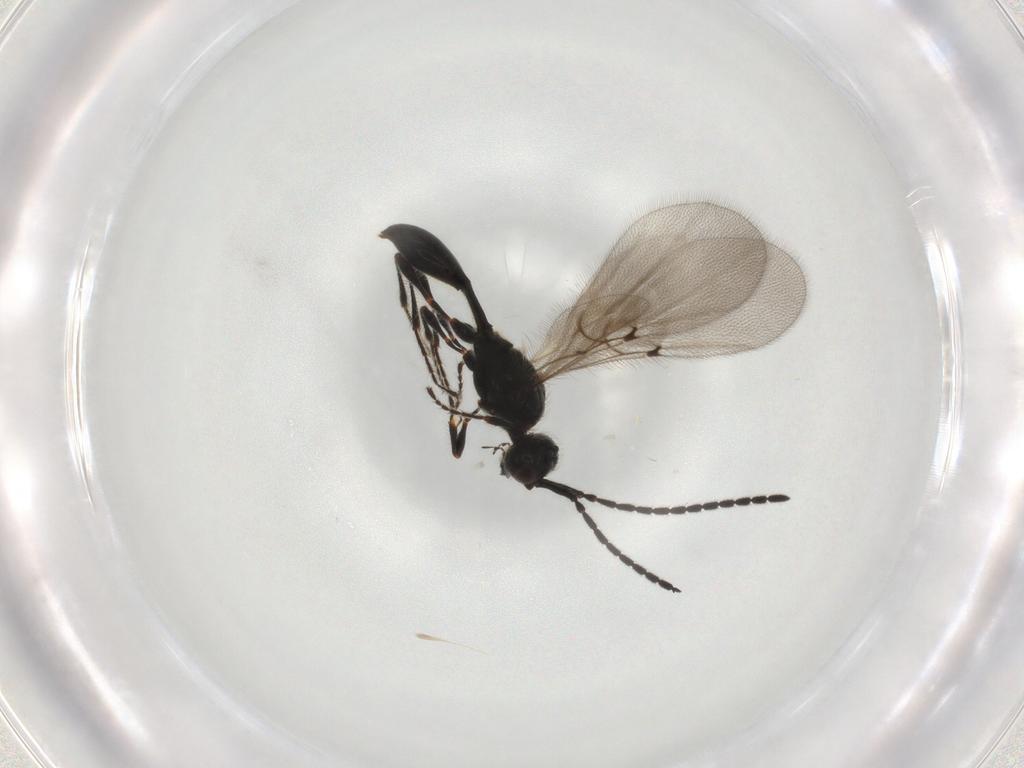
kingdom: Animalia
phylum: Arthropoda
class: Insecta
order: Hymenoptera
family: Diapriidae
